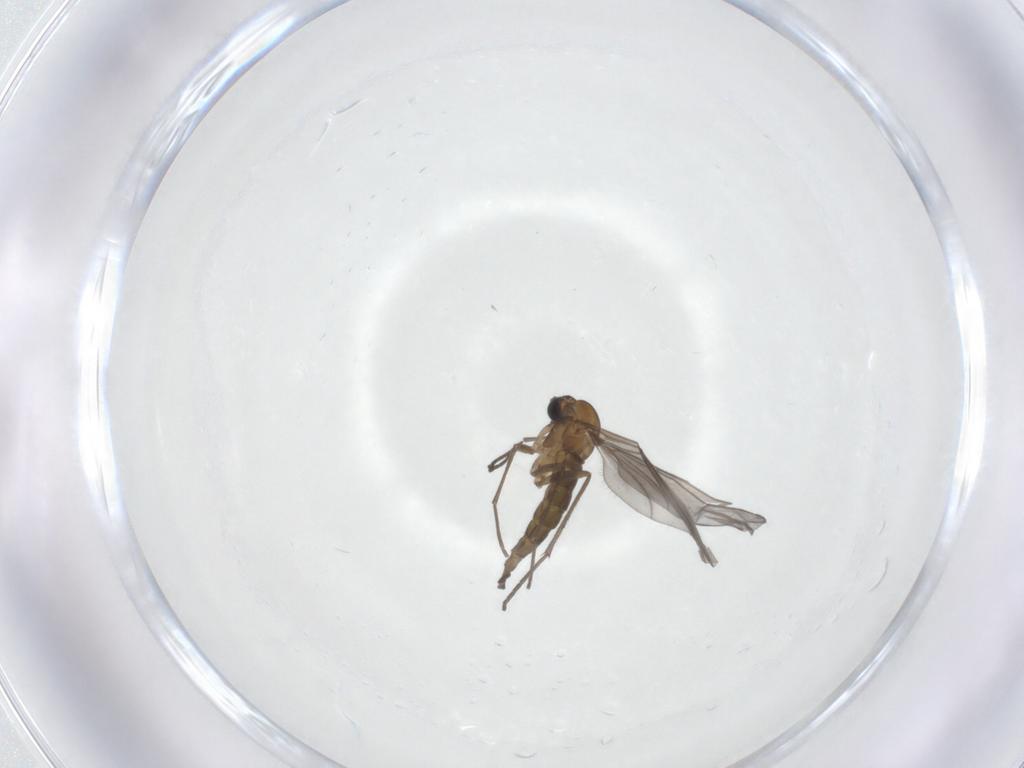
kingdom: Animalia
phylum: Arthropoda
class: Insecta
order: Diptera
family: Sciaridae
